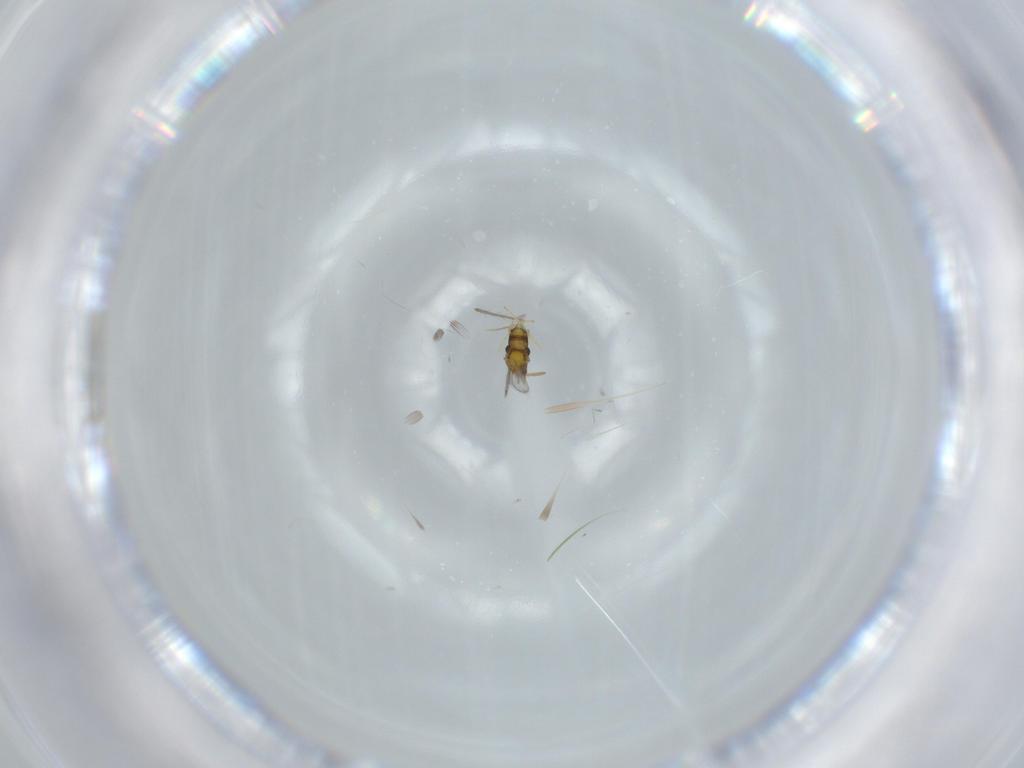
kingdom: Animalia
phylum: Arthropoda
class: Insecta
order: Hymenoptera
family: Aphelinidae
